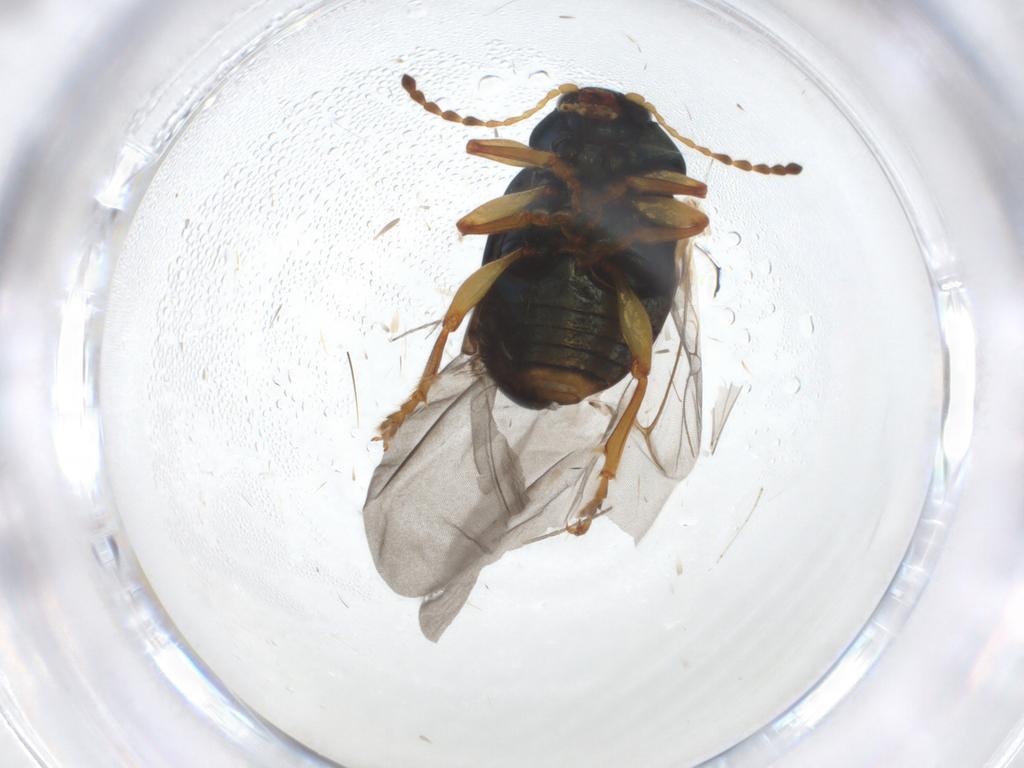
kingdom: Animalia
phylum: Arthropoda
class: Insecta
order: Coleoptera
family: Chrysomelidae
